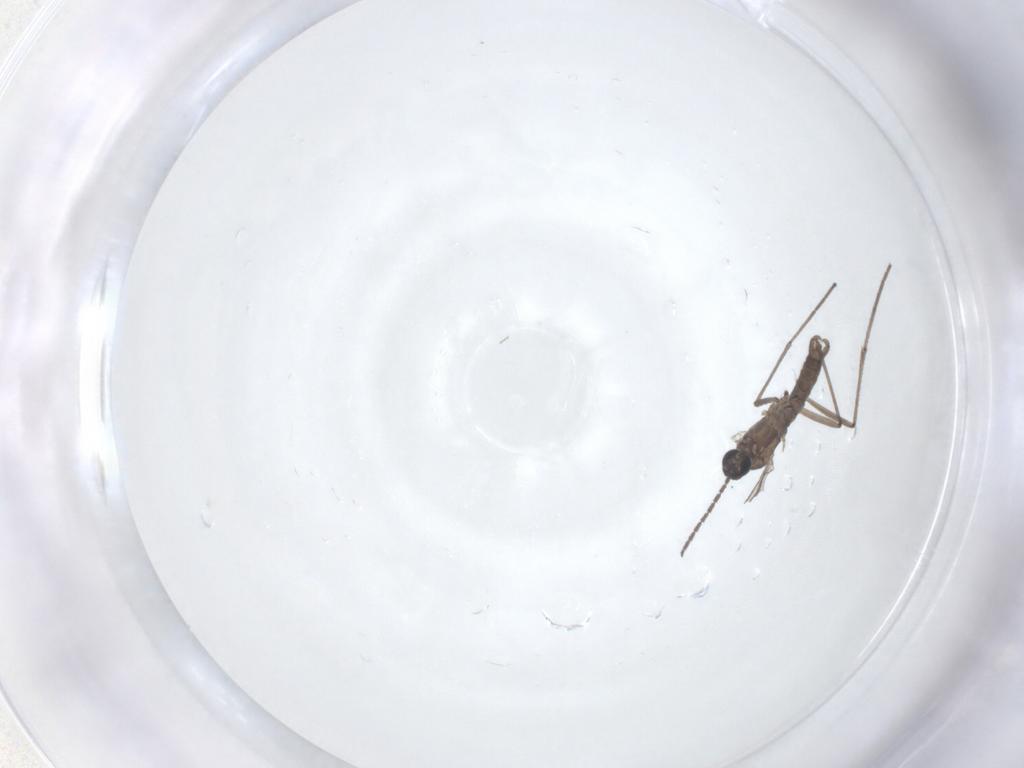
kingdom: Animalia
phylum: Arthropoda
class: Insecta
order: Diptera
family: Sciaridae
